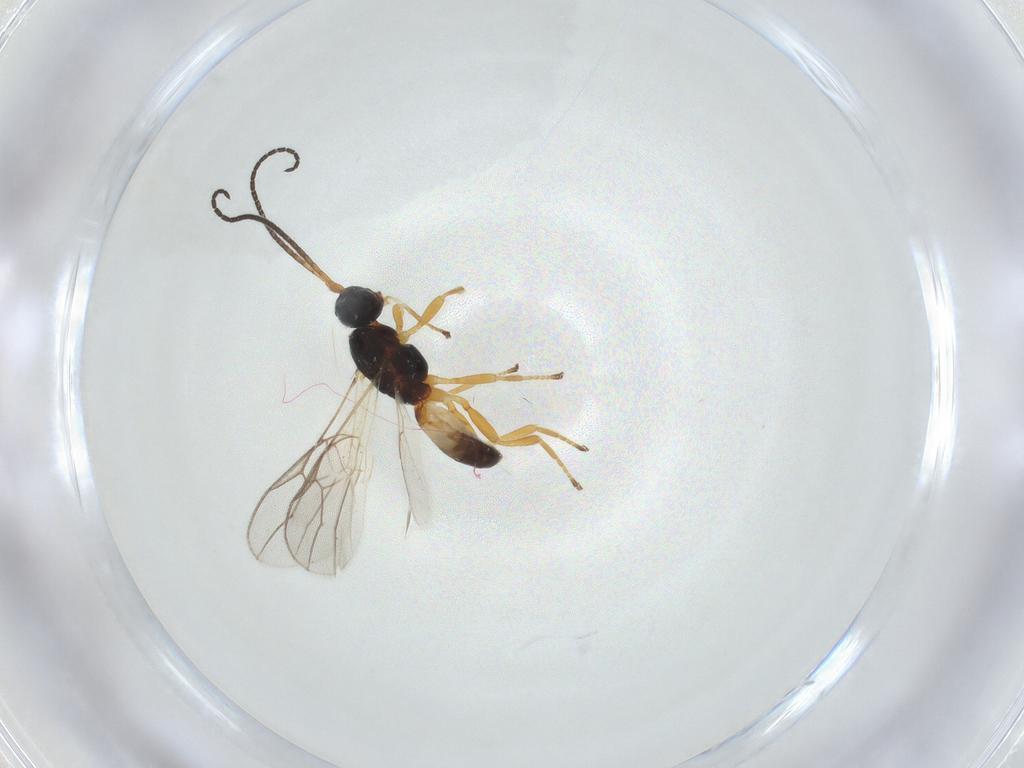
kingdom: Animalia
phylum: Arthropoda
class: Insecta
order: Hymenoptera
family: Braconidae
